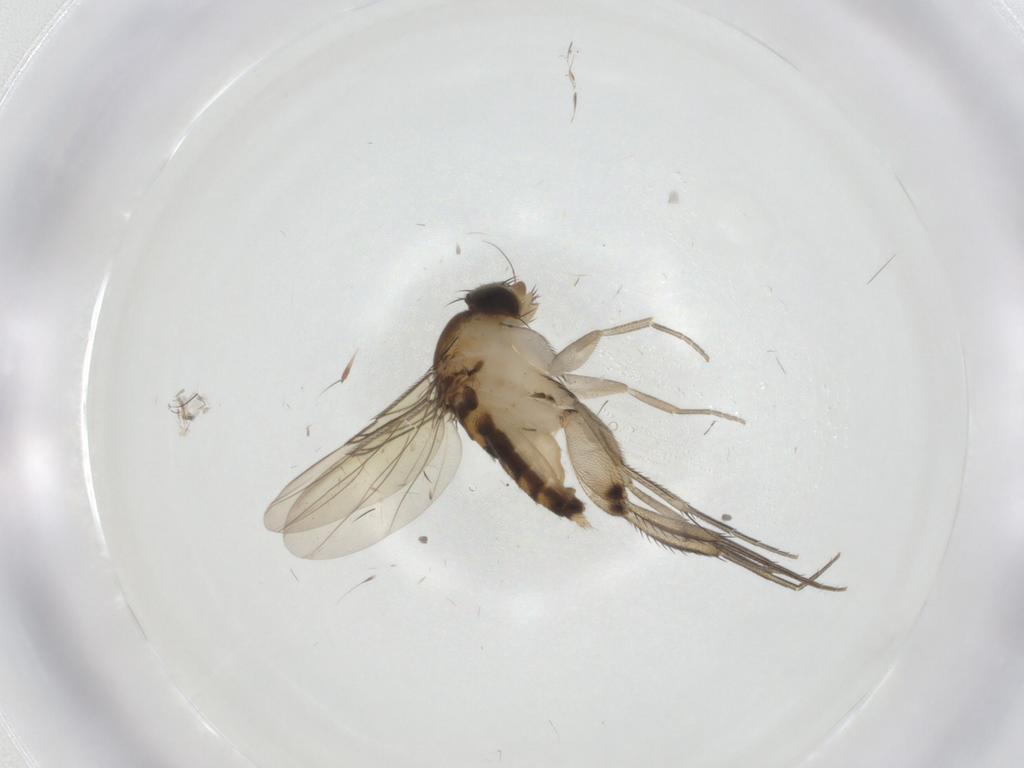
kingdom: Animalia
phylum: Arthropoda
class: Insecta
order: Diptera
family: Phoridae
